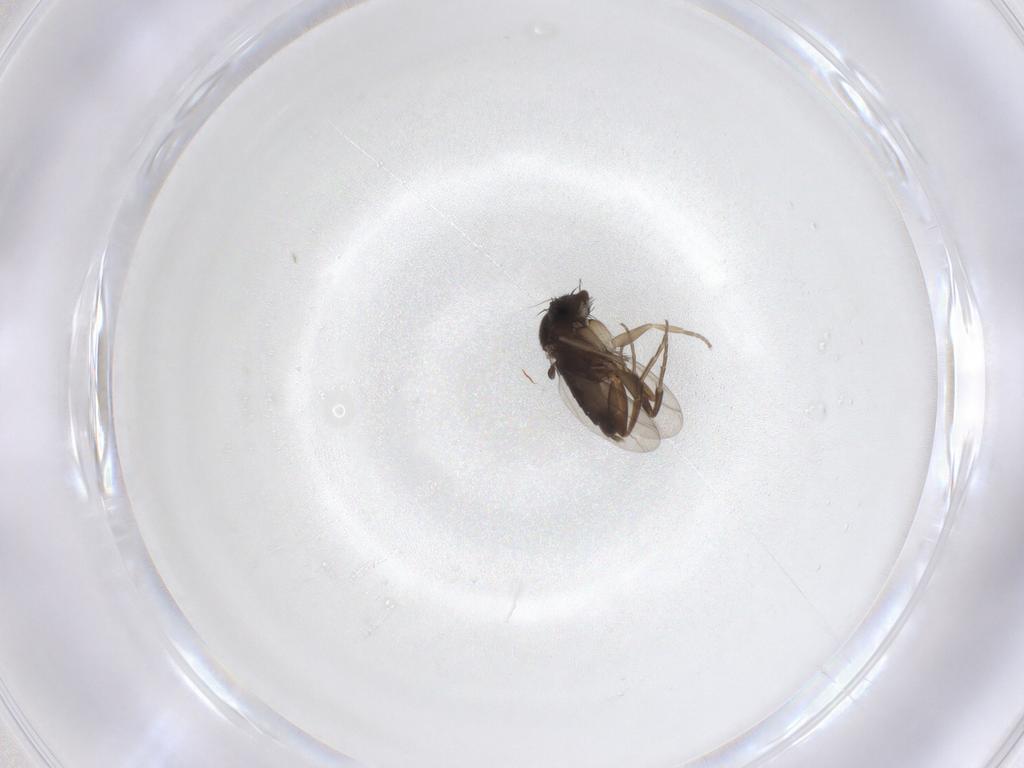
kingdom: Animalia
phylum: Arthropoda
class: Insecta
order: Diptera
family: Phoridae
